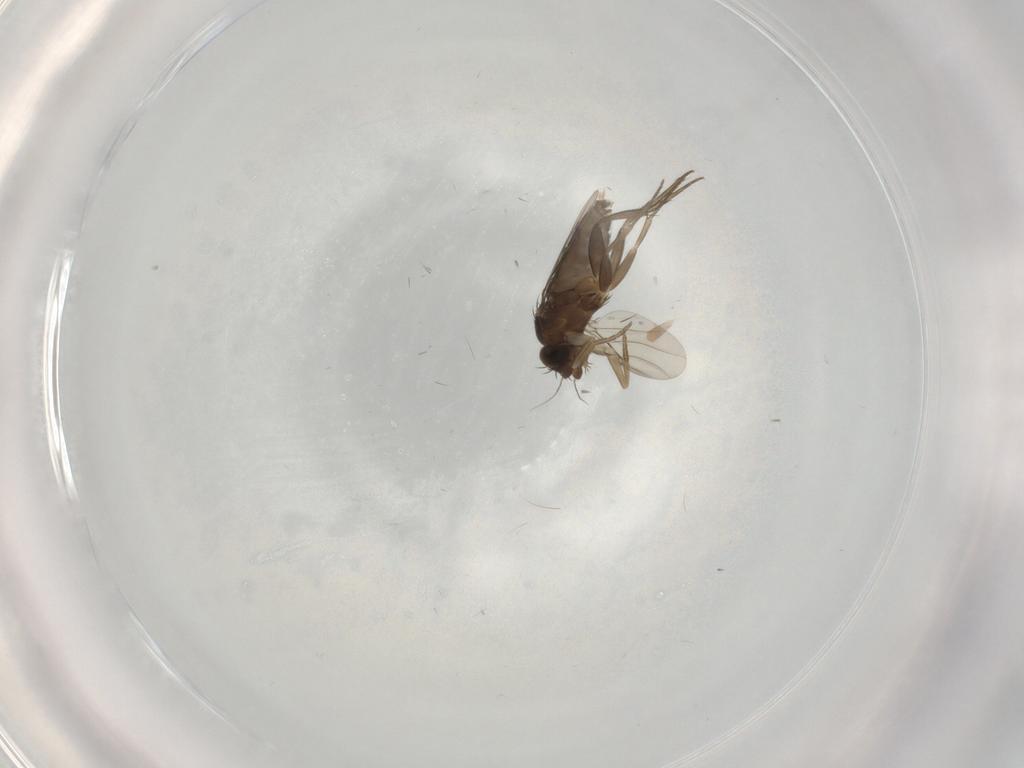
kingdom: Animalia
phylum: Arthropoda
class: Insecta
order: Diptera
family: Phoridae
